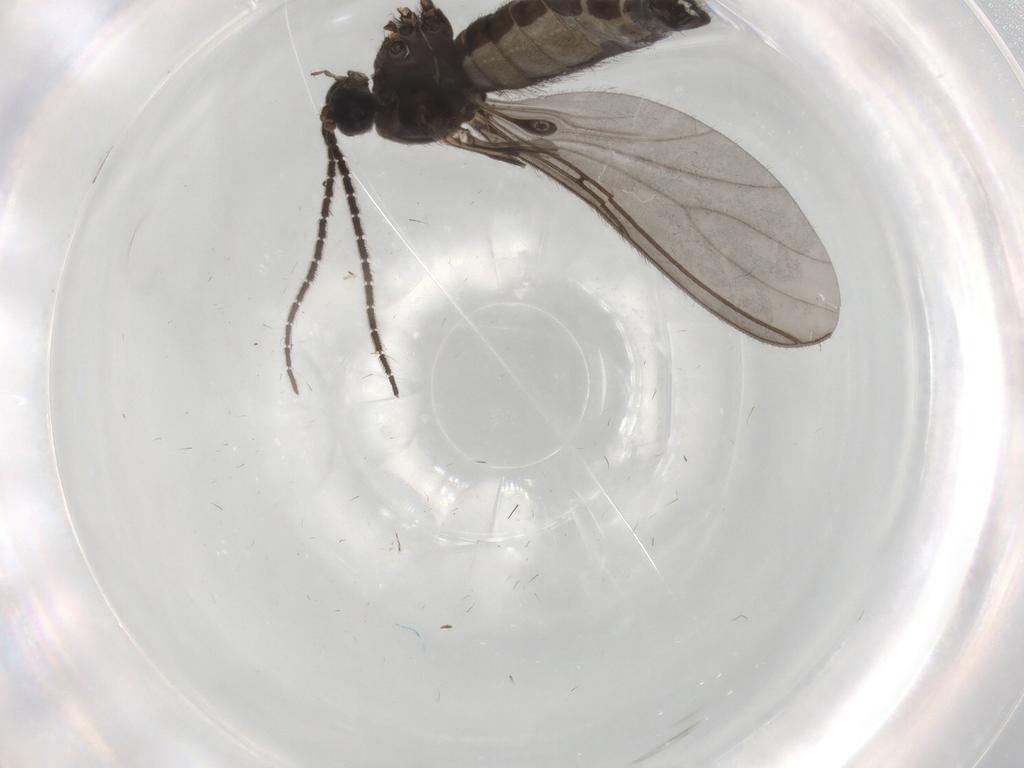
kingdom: Animalia
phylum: Arthropoda
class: Insecta
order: Diptera
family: Sciaridae
